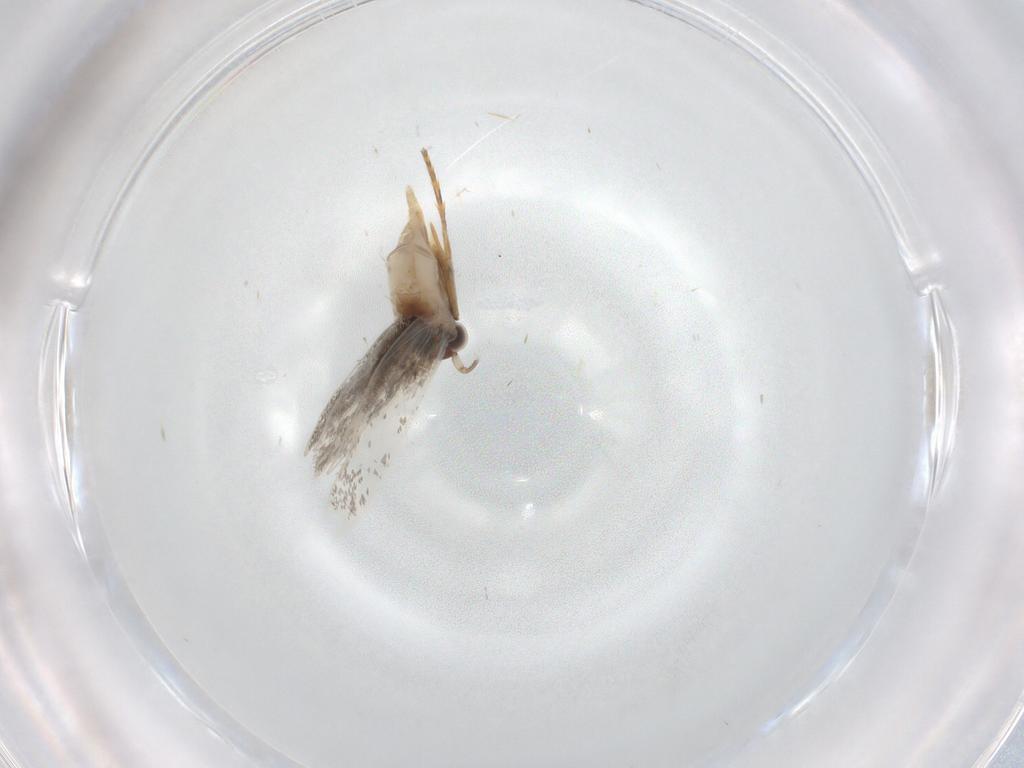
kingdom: Animalia
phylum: Arthropoda
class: Insecta
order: Lepidoptera
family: Tineidae
